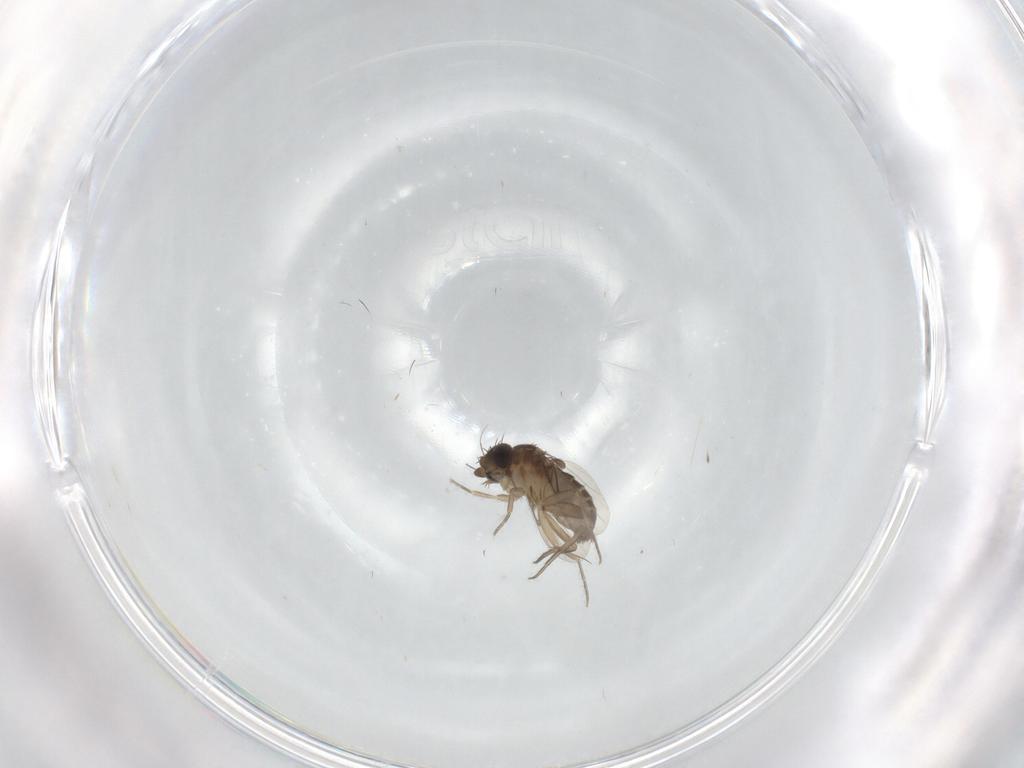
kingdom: Animalia
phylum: Arthropoda
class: Insecta
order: Diptera
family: Phoridae
